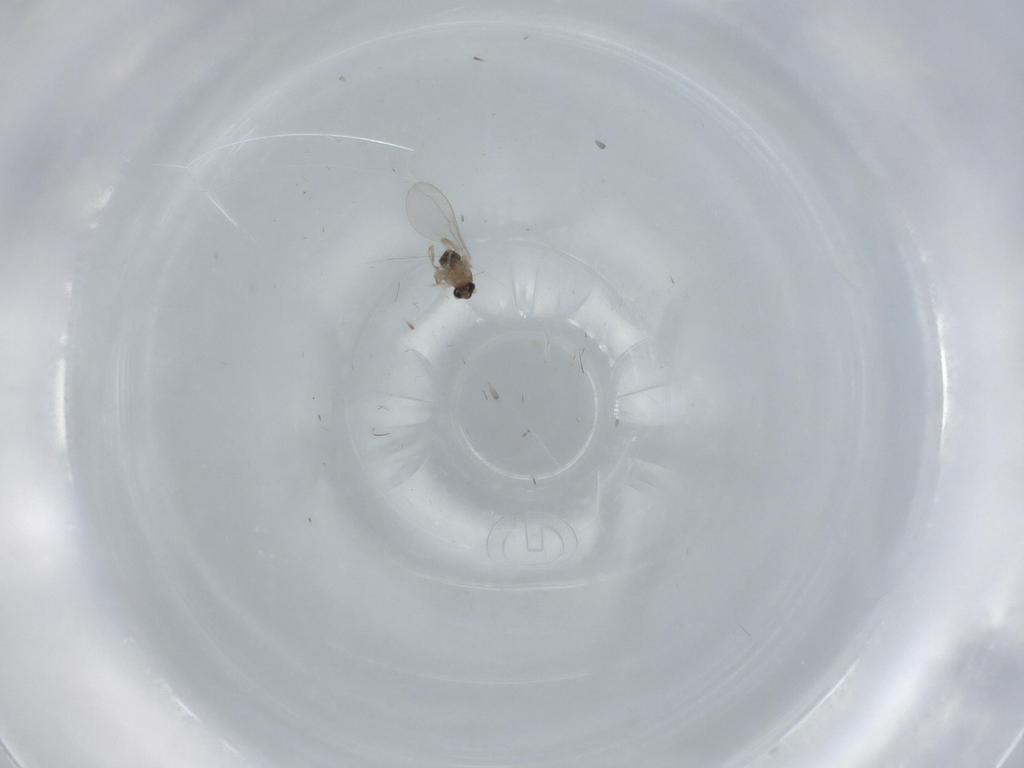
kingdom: Animalia
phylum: Arthropoda
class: Insecta
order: Diptera
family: Cecidomyiidae
